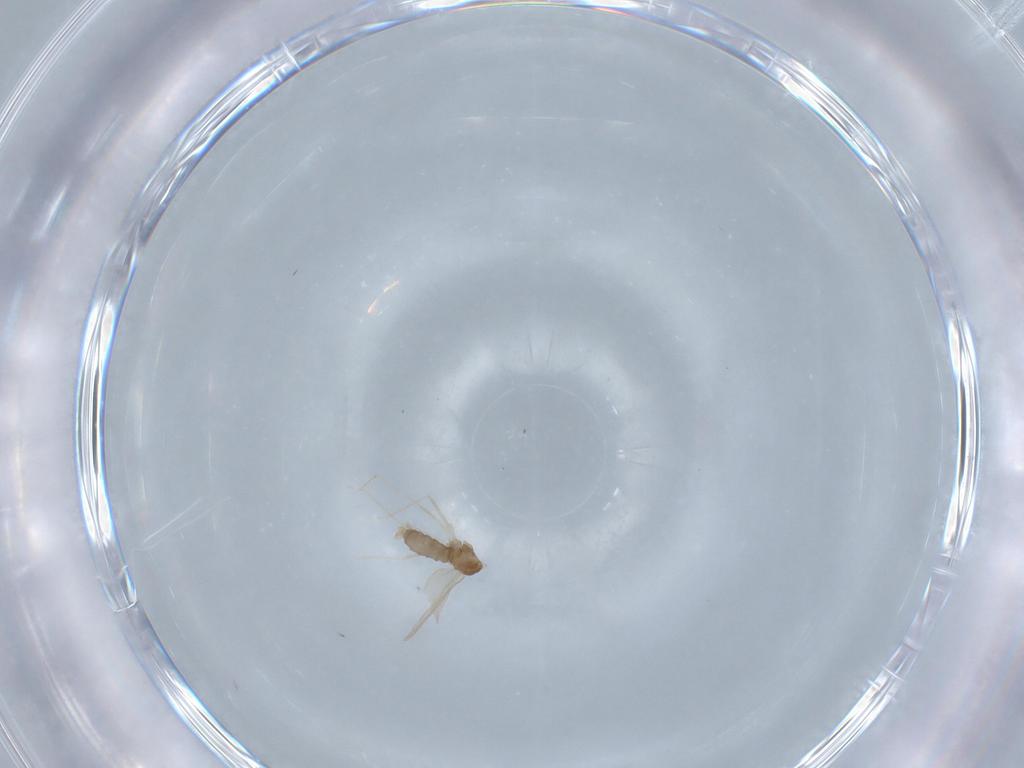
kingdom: Animalia
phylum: Arthropoda
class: Insecta
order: Diptera
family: Cecidomyiidae
